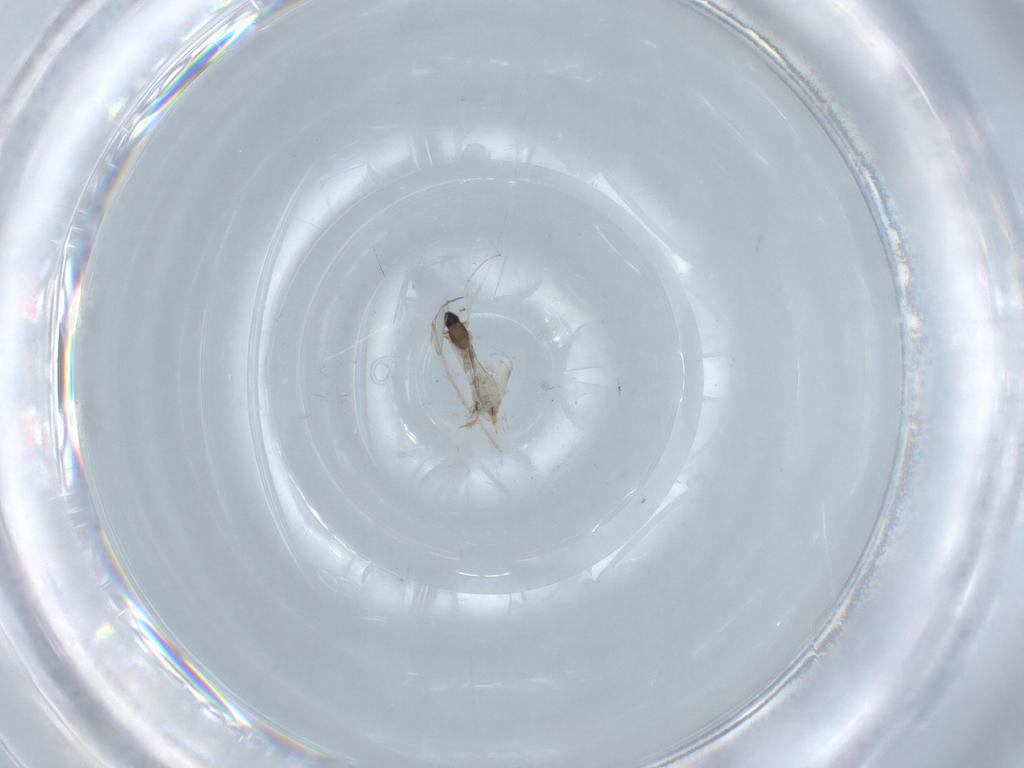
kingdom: Animalia
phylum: Arthropoda
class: Insecta
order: Diptera
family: Cecidomyiidae
